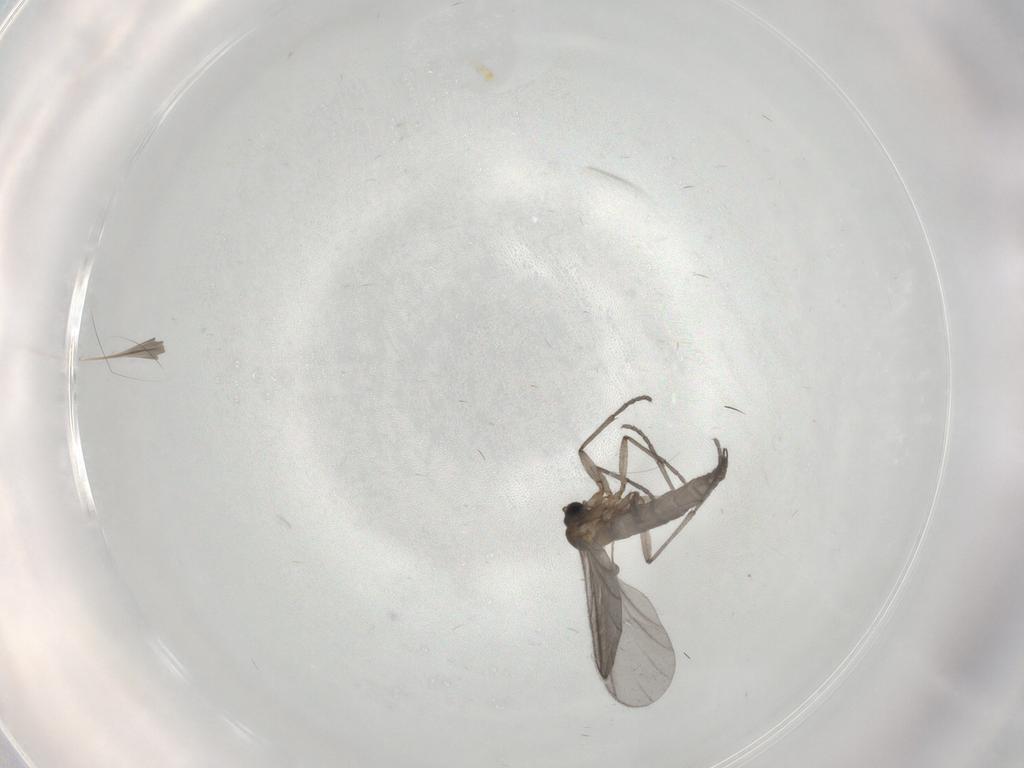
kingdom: Animalia
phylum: Arthropoda
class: Insecta
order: Diptera
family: Sciaridae
